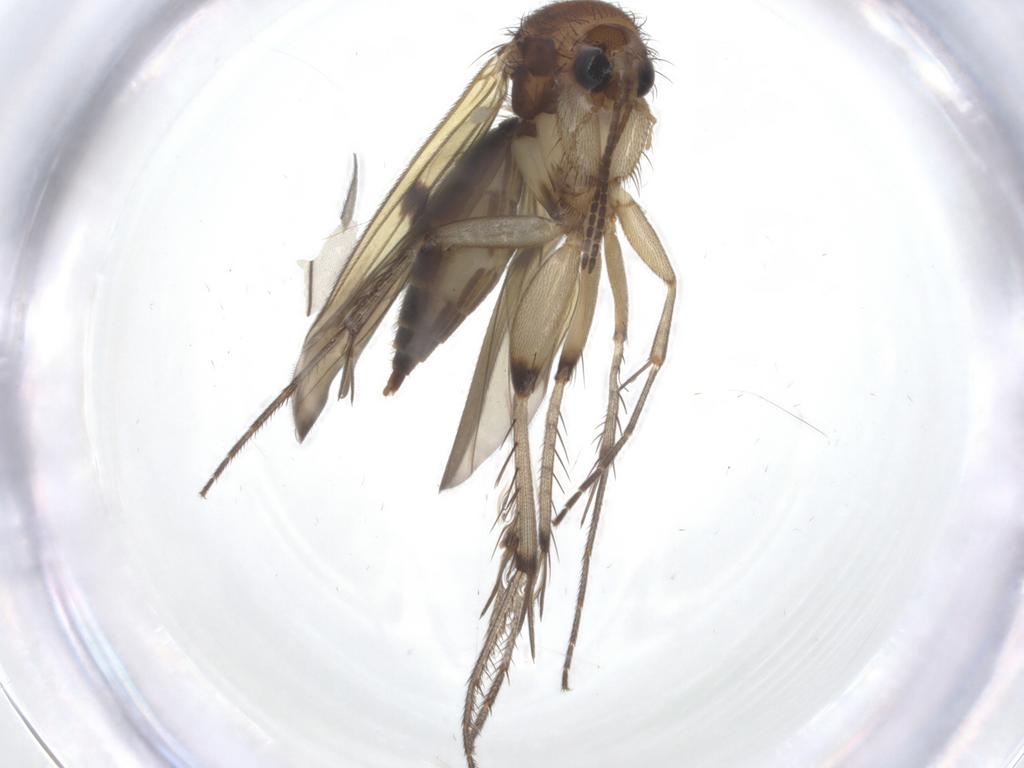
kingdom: Animalia
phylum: Arthropoda
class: Insecta
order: Diptera
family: Mycetophilidae
